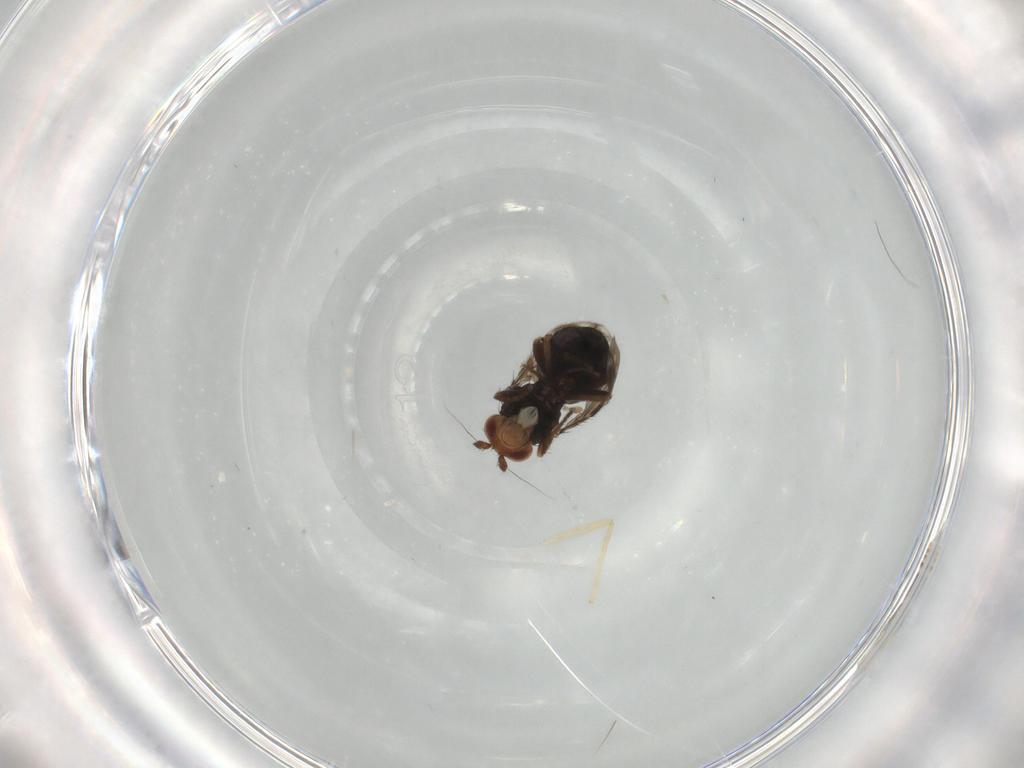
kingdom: Animalia
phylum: Arthropoda
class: Insecta
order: Diptera
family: Sphaeroceridae
